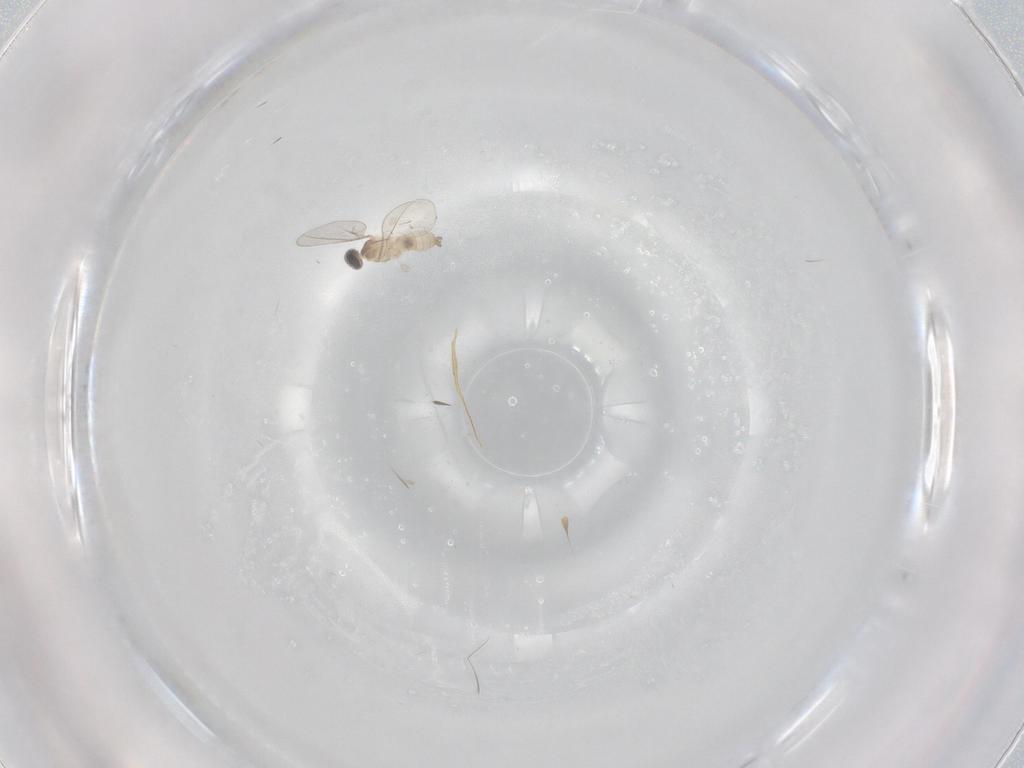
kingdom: Animalia
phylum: Arthropoda
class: Insecta
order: Diptera
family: Cecidomyiidae
